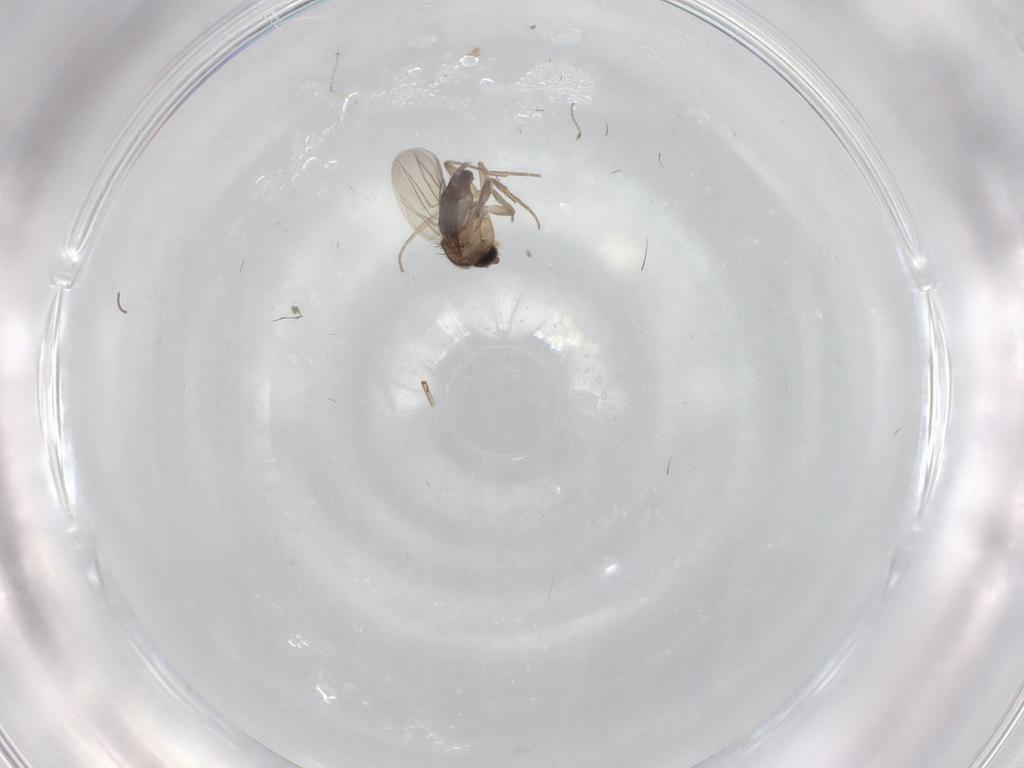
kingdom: Animalia
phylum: Arthropoda
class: Insecta
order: Diptera
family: Phoridae
